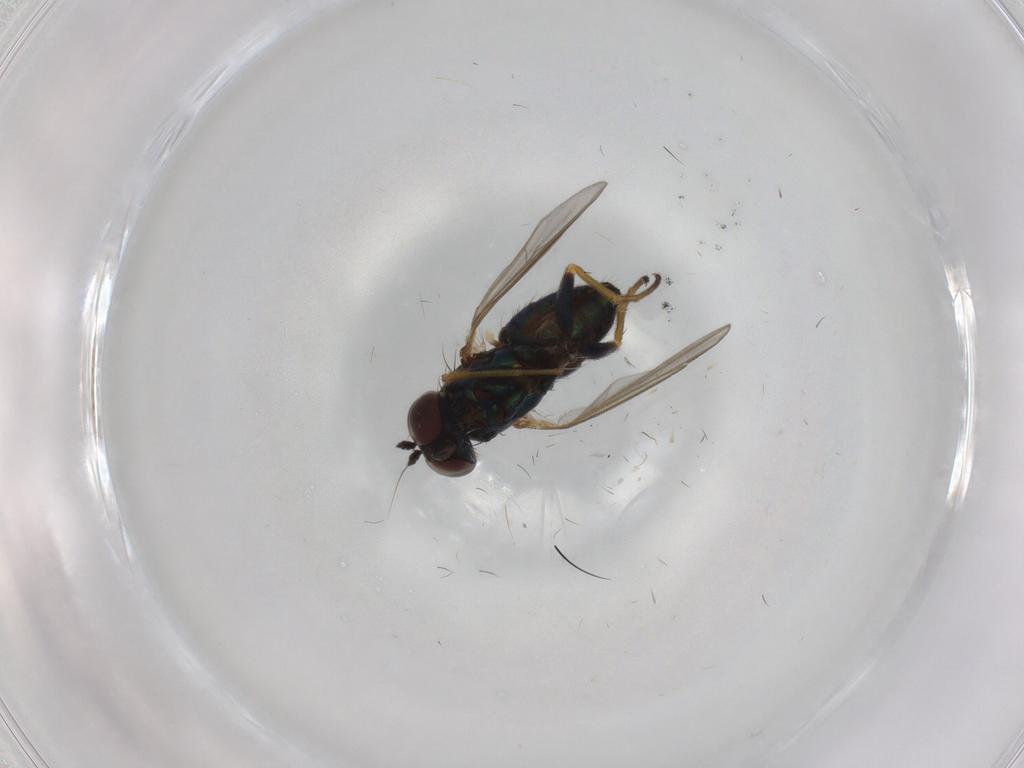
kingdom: Animalia
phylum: Arthropoda
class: Insecta
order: Diptera
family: Dolichopodidae
